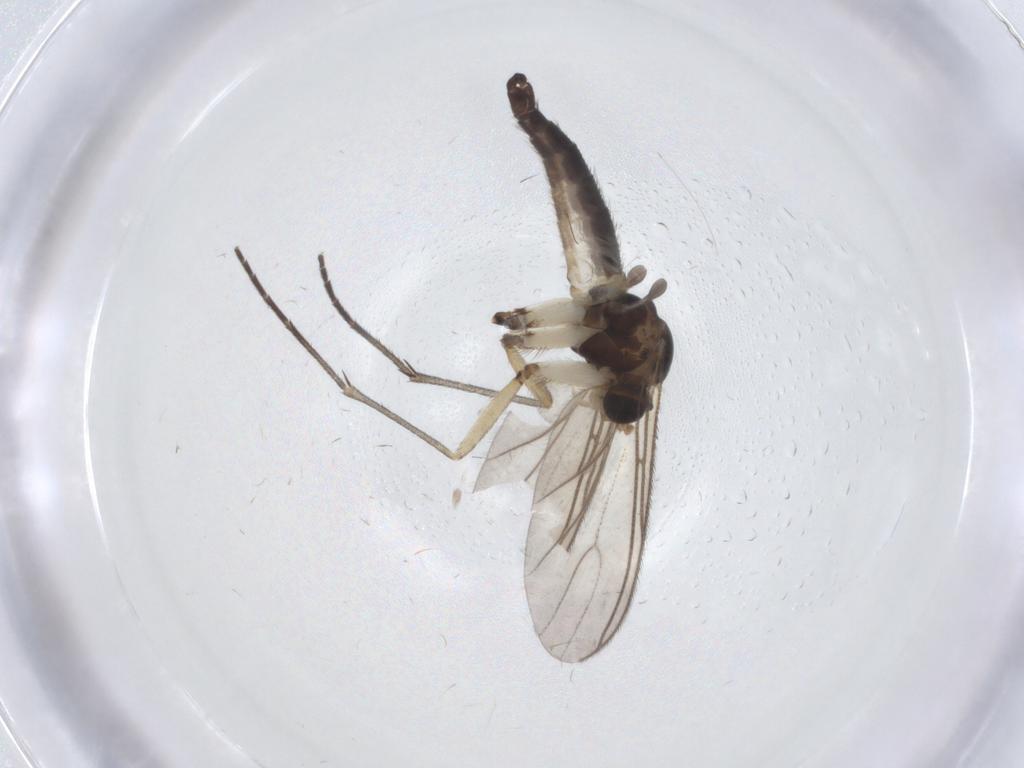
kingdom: Animalia
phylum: Arthropoda
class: Insecta
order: Diptera
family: Sciaridae
